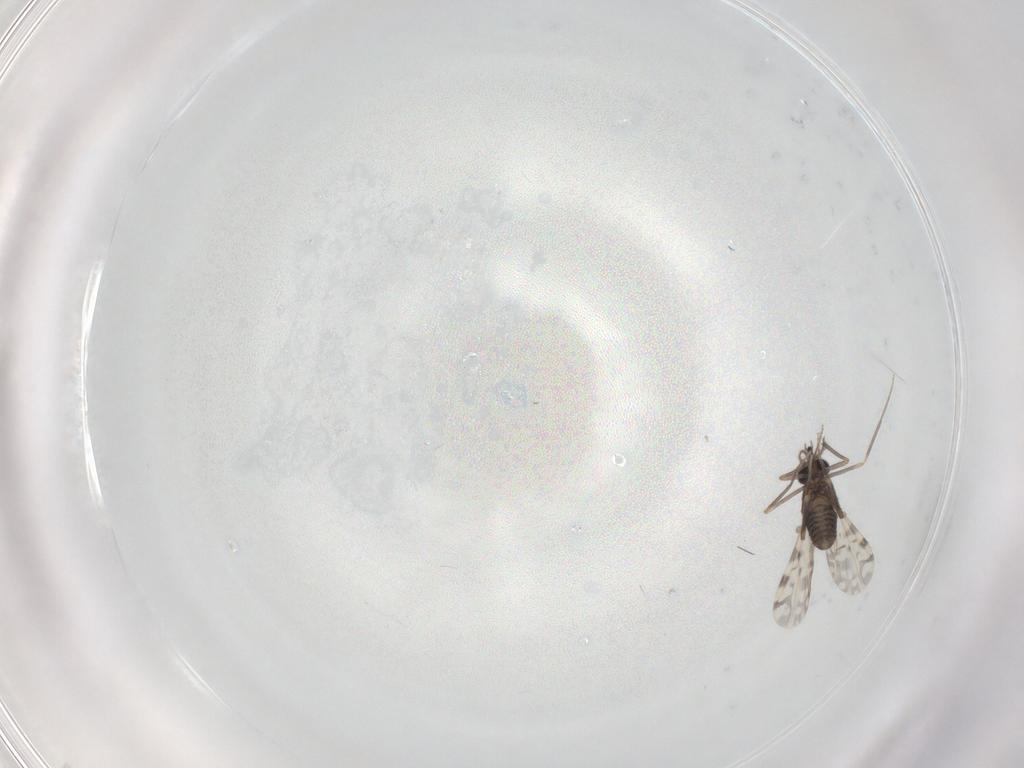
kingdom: Animalia
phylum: Arthropoda
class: Insecta
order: Diptera
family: Ceratopogonidae
